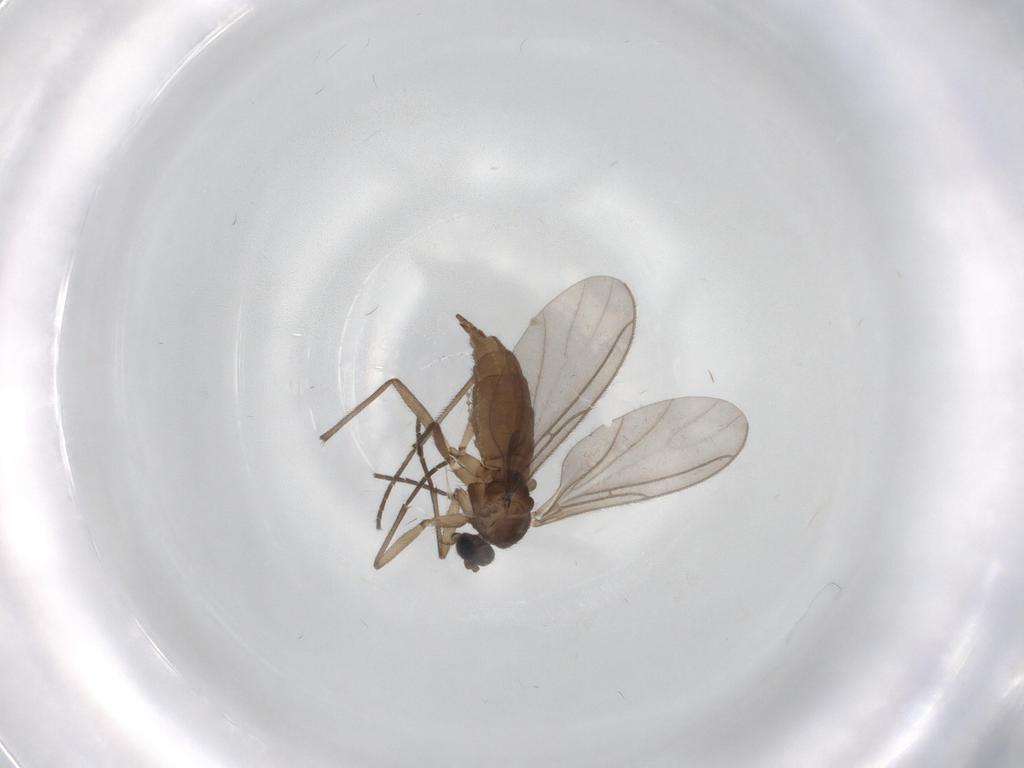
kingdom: Animalia
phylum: Arthropoda
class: Insecta
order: Diptera
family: Sciaridae
